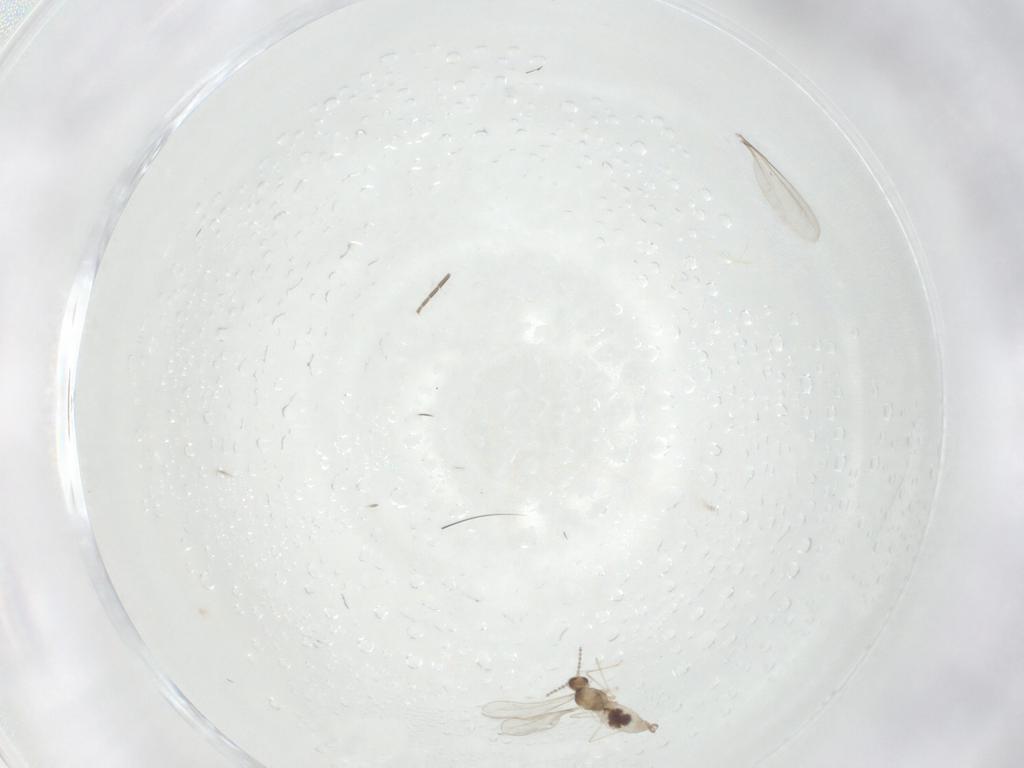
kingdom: Animalia
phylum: Arthropoda
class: Insecta
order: Diptera
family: Cecidomyiidae
